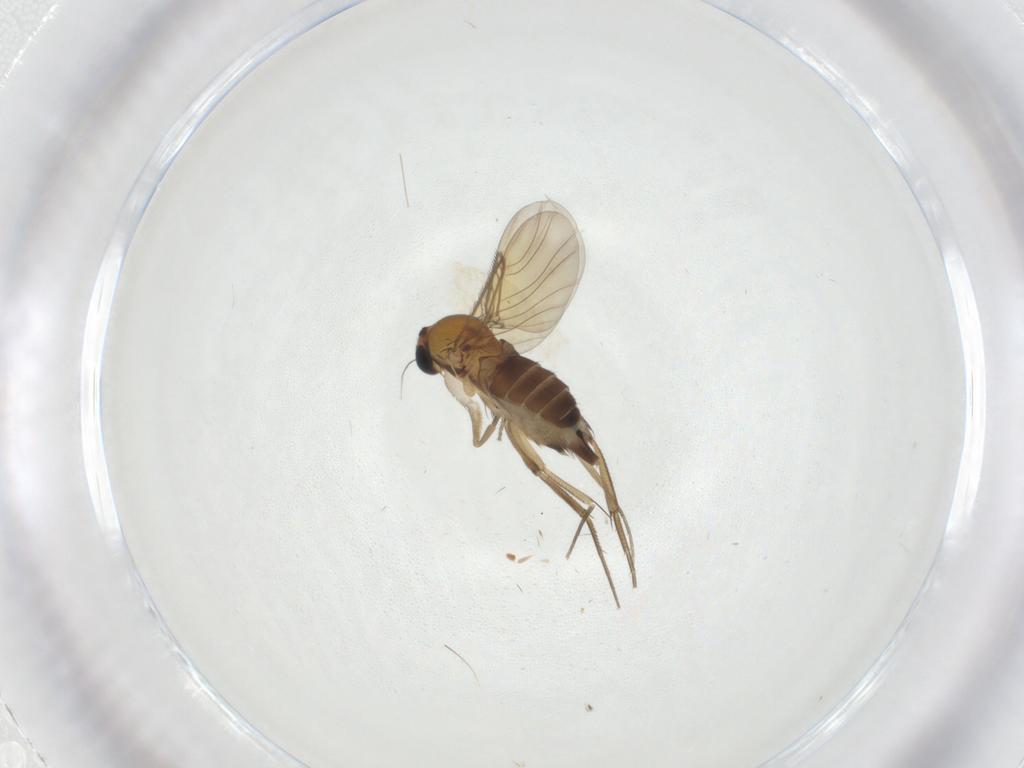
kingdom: Animalia
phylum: Arthropoda
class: Insecta
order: Diptera
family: Phoridae
